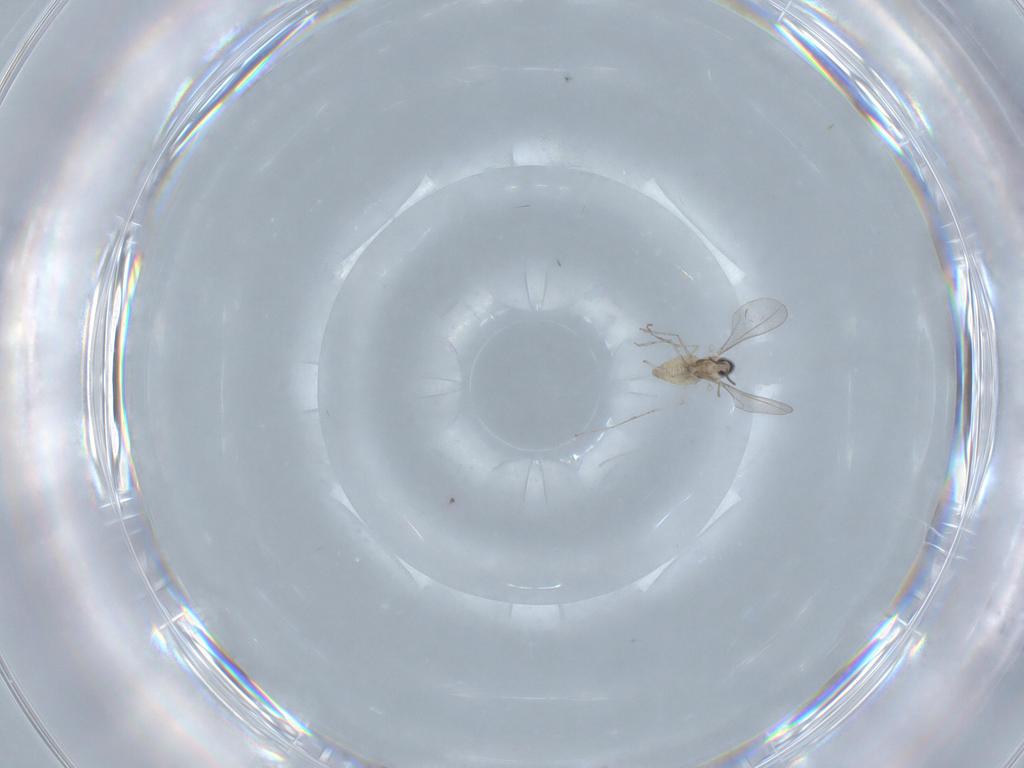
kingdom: Animalia
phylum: Arthropoda
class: Insecta
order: Diptera
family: Cecidomyiidae
